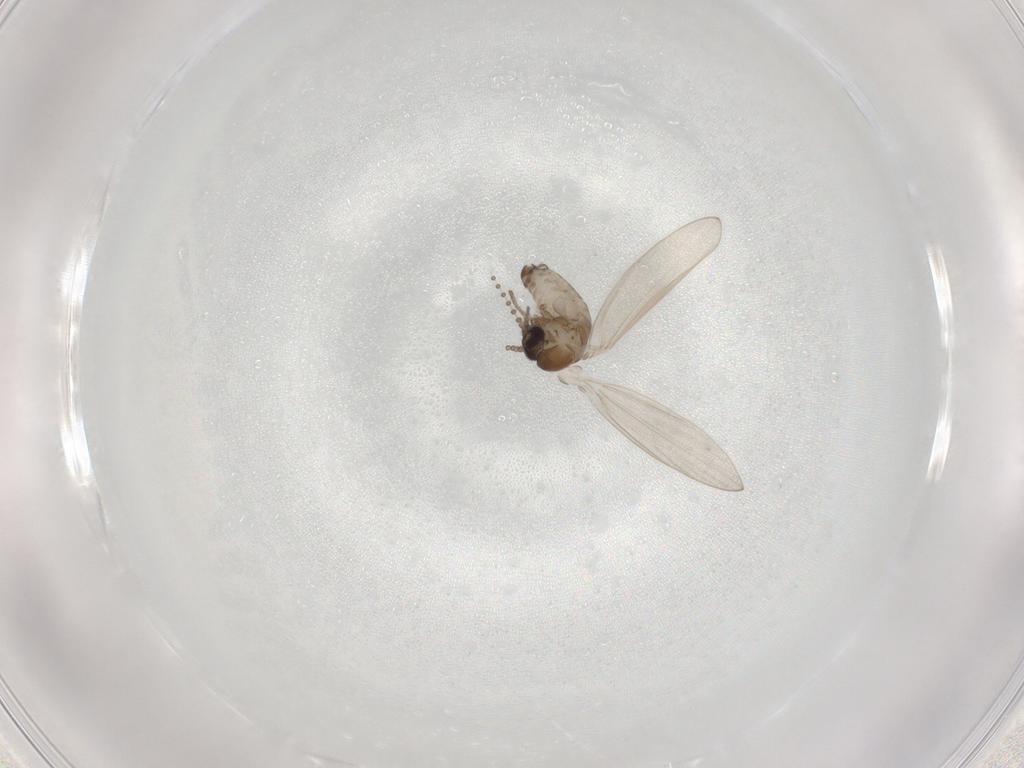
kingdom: Animalia
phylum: Arthropoda
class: Insecta
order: Diptera
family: Psychodidae
